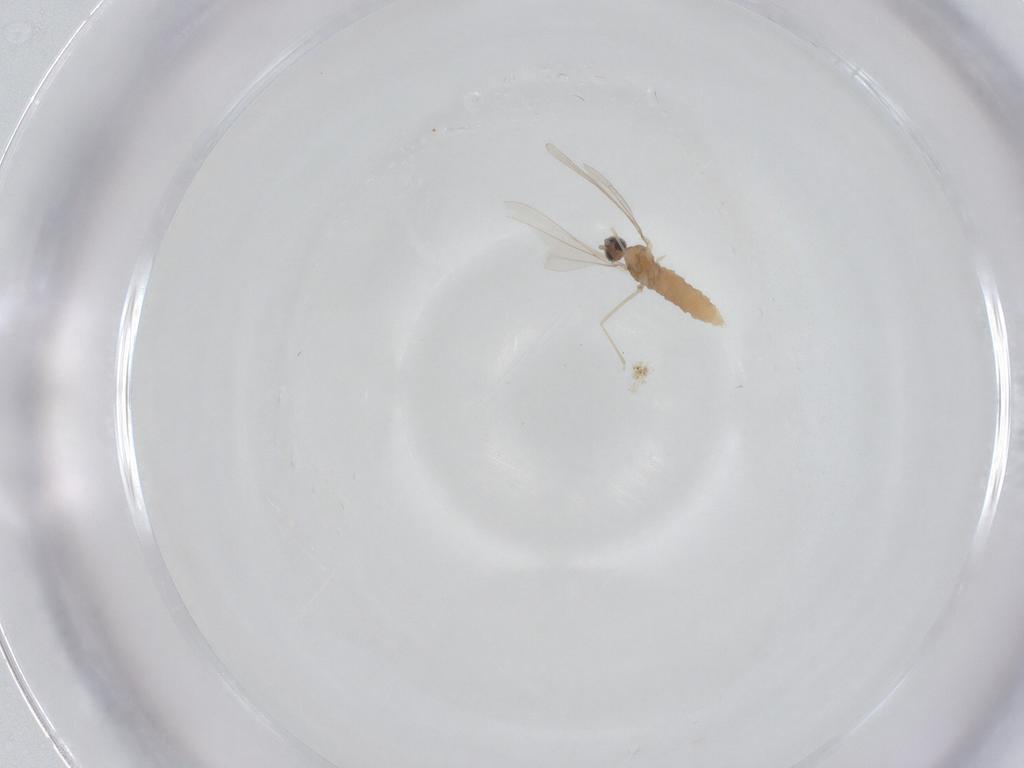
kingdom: Animalia
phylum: Arthropoda
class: Insecta
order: Diptera
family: Cecidomyiidae
